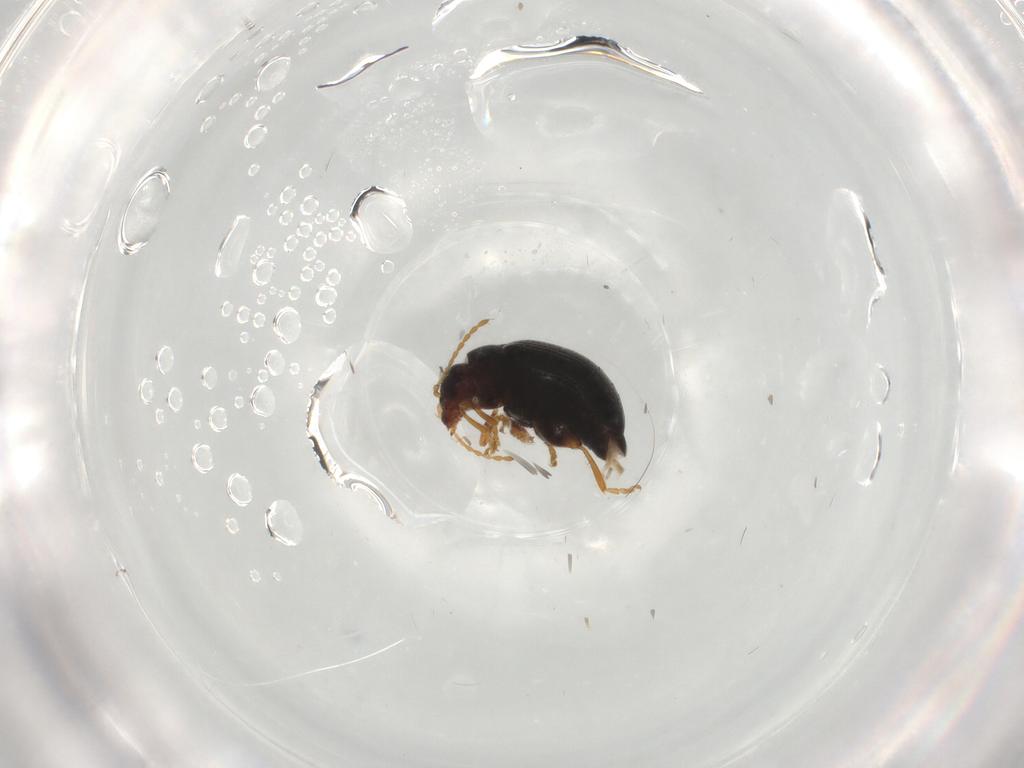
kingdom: Animalia
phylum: Arthropoda
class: Insecta
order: Coleoptera
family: Chrysomelidae
